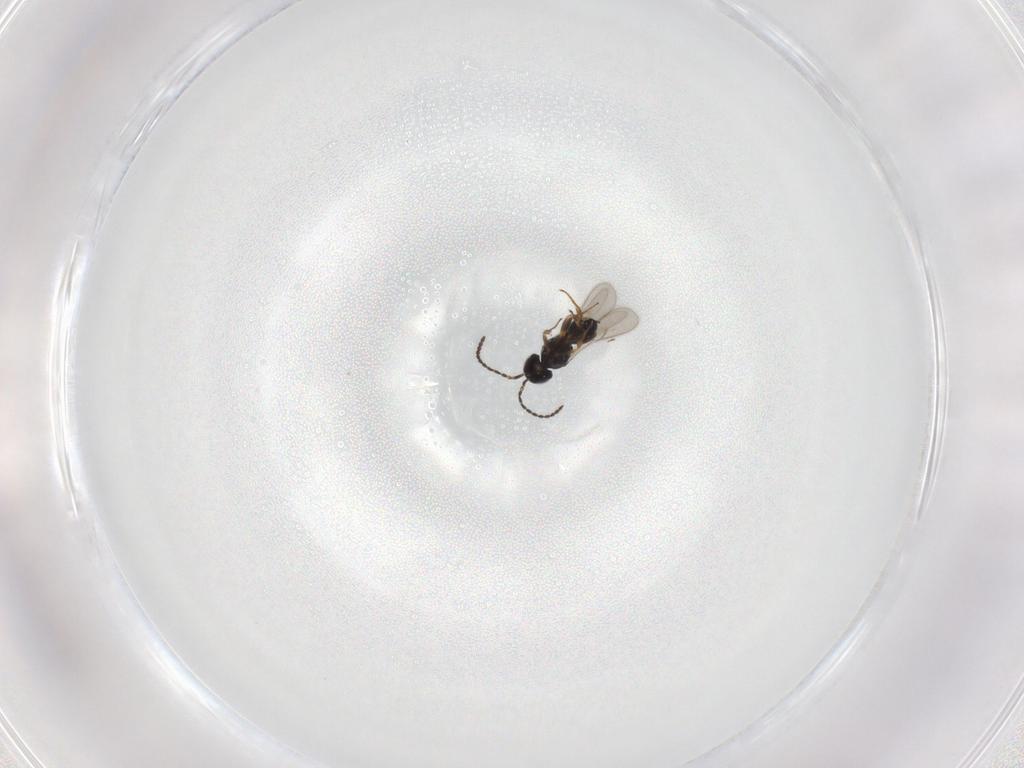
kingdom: Animalia
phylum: Arthropoda
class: Insecta
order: Hymenoptera
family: Scelionidae
